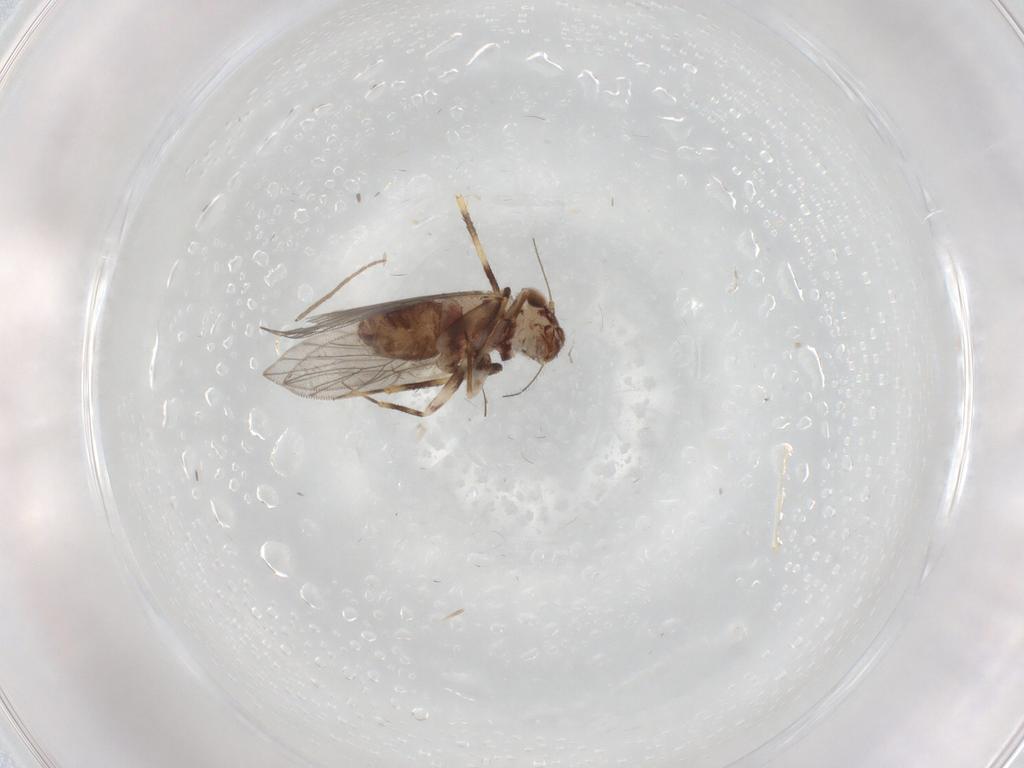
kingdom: Animalia
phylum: Arthropoda
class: Insecta
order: Psocodea
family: Lepidopsocidae
